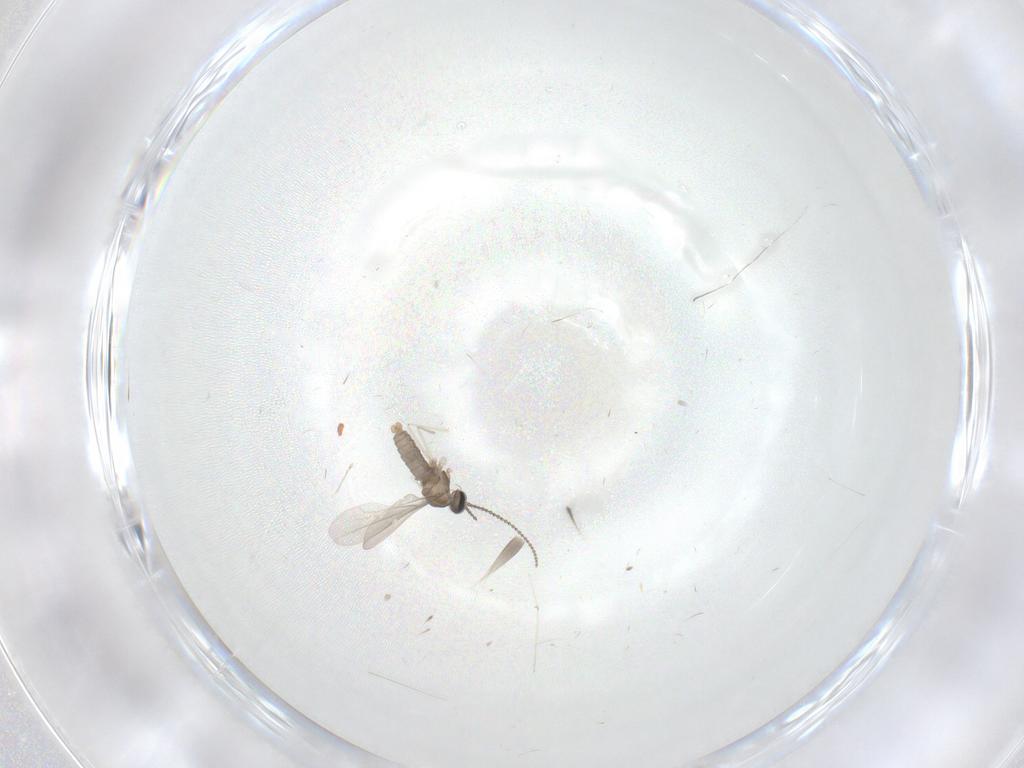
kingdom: Animalia
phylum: Arthropoda
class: Insecta
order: Diptera
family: Cecidomyiidae
